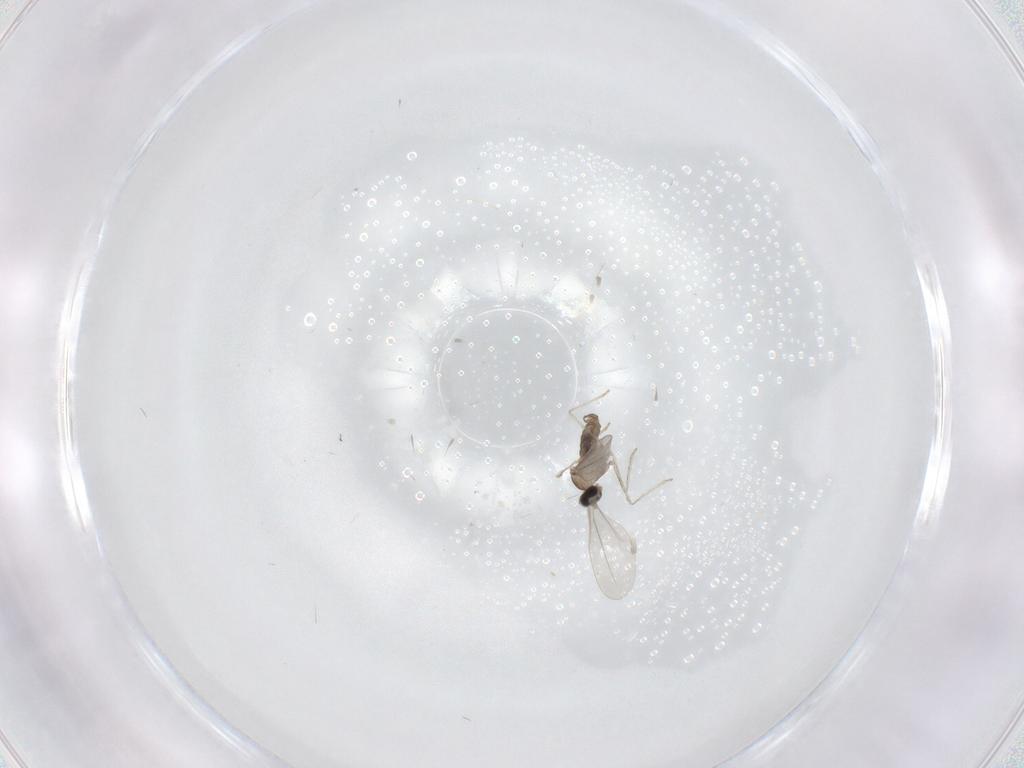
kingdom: Animalia
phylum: Arthropoda
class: Insecta
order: Diptera
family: Cecidomyiidae
